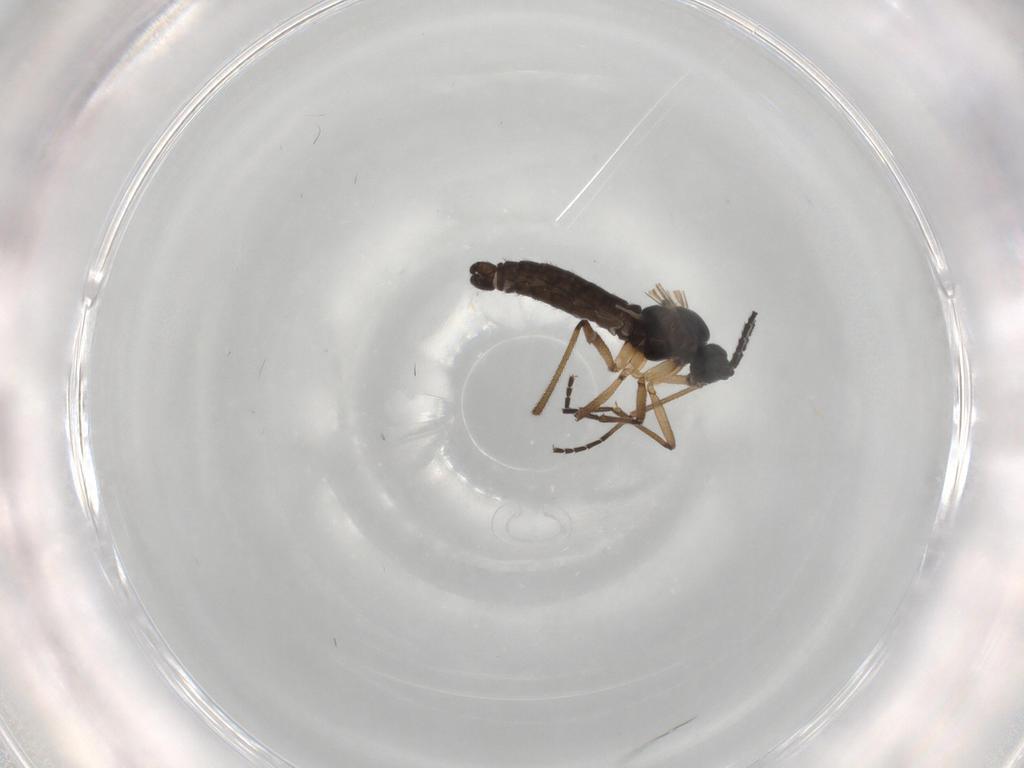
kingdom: Animalia
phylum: Arthropoda
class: Insecta
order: Diptera
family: Sciaridae
